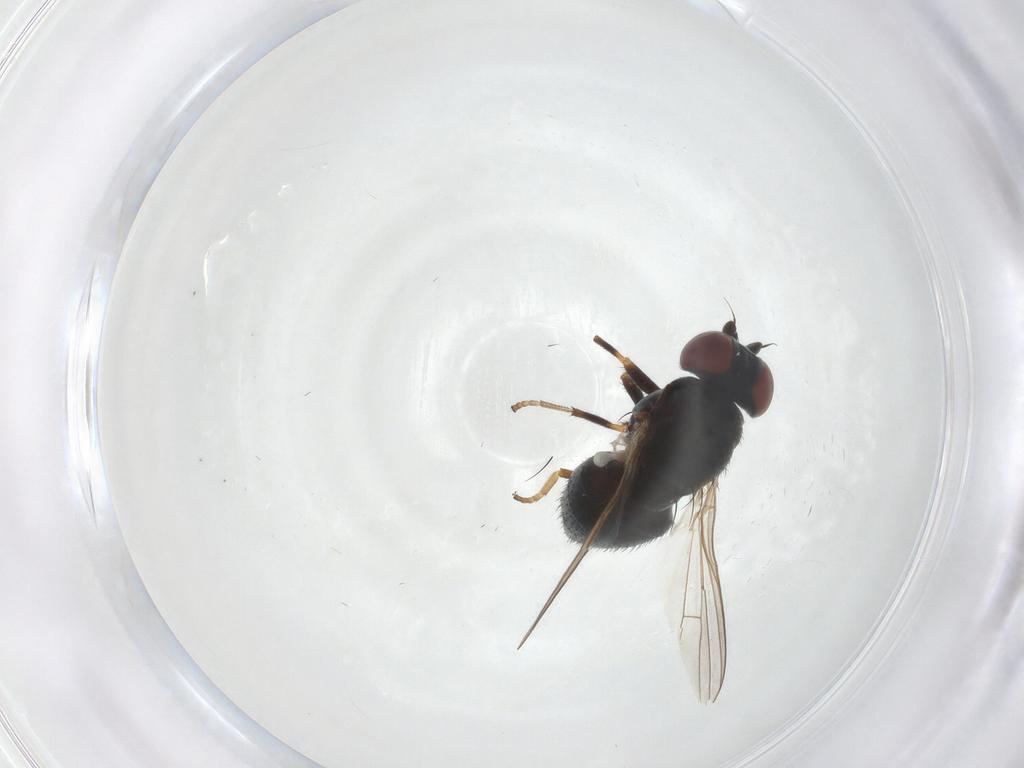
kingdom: Animalia
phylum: Arthropoda
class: Insecta
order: Diptera
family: Chamaemyiidae
